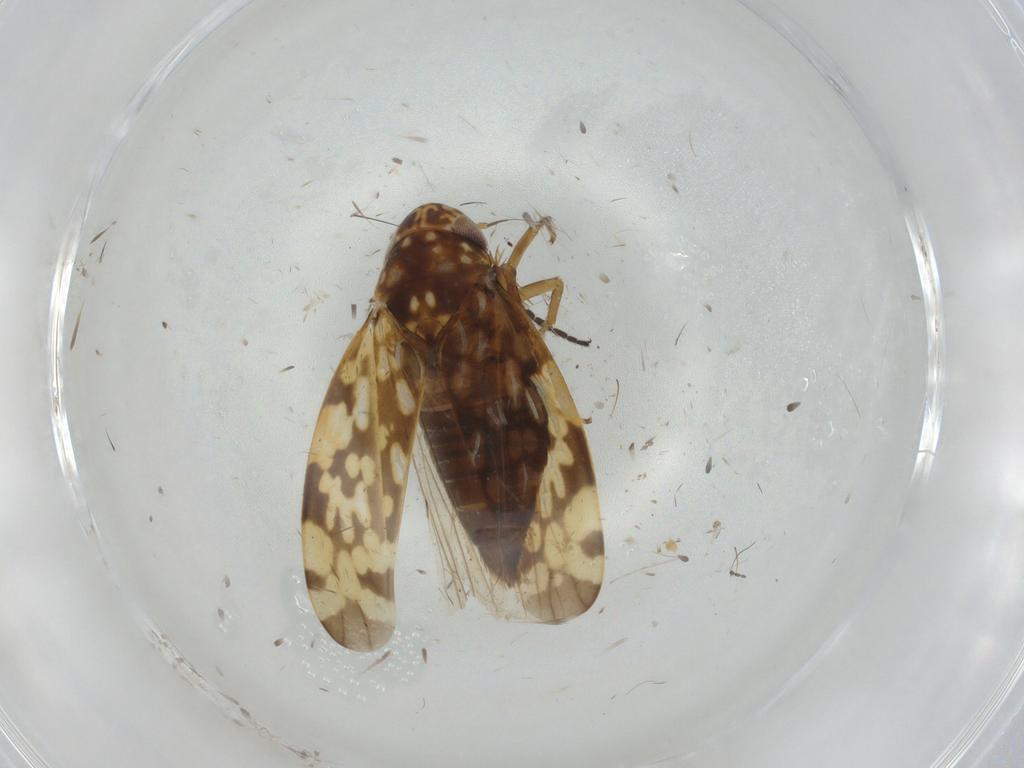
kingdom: Animalia
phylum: Arthropoda
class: Insecta
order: Hemiptera
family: Cicadellidae
